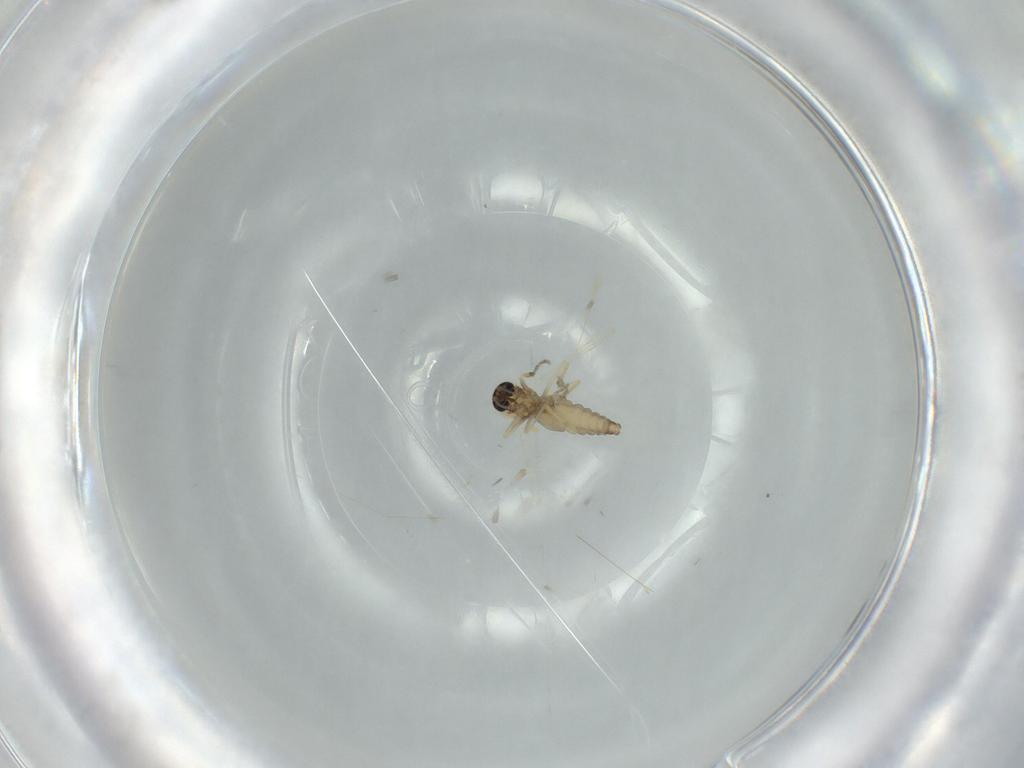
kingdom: Animalia
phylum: Arthropoda
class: Insecta
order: Diptera
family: Ceratopogonidae
